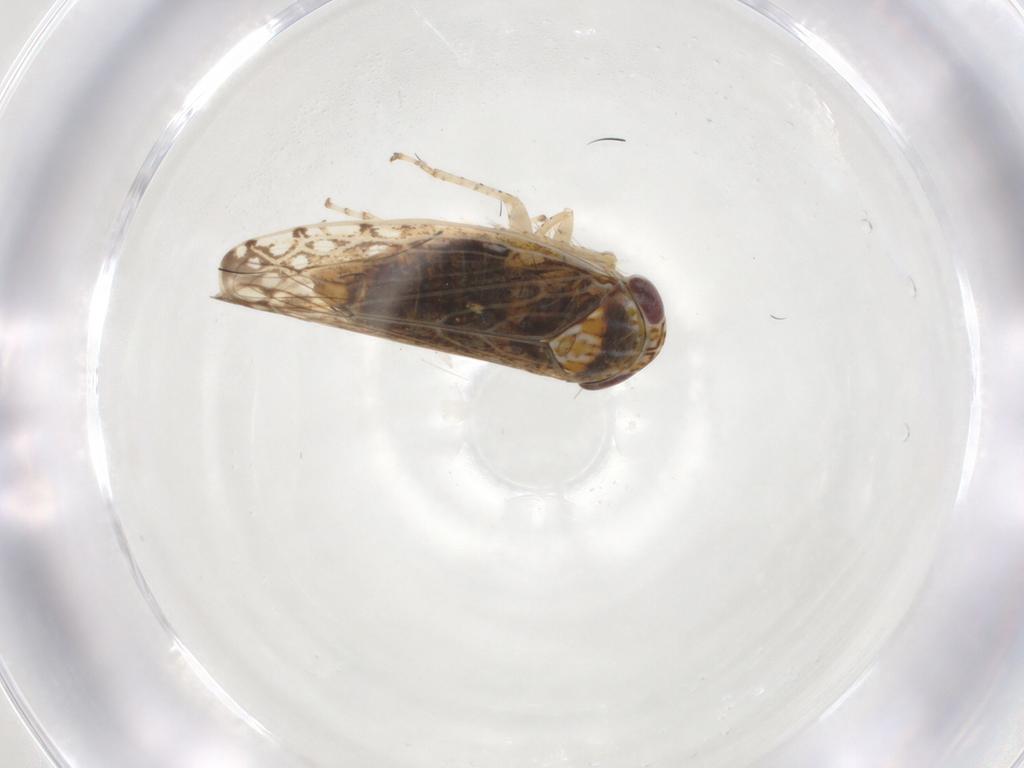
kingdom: Animalia
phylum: Arthropoda
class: Insecta
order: Hemiptera
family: Cicadellidae
